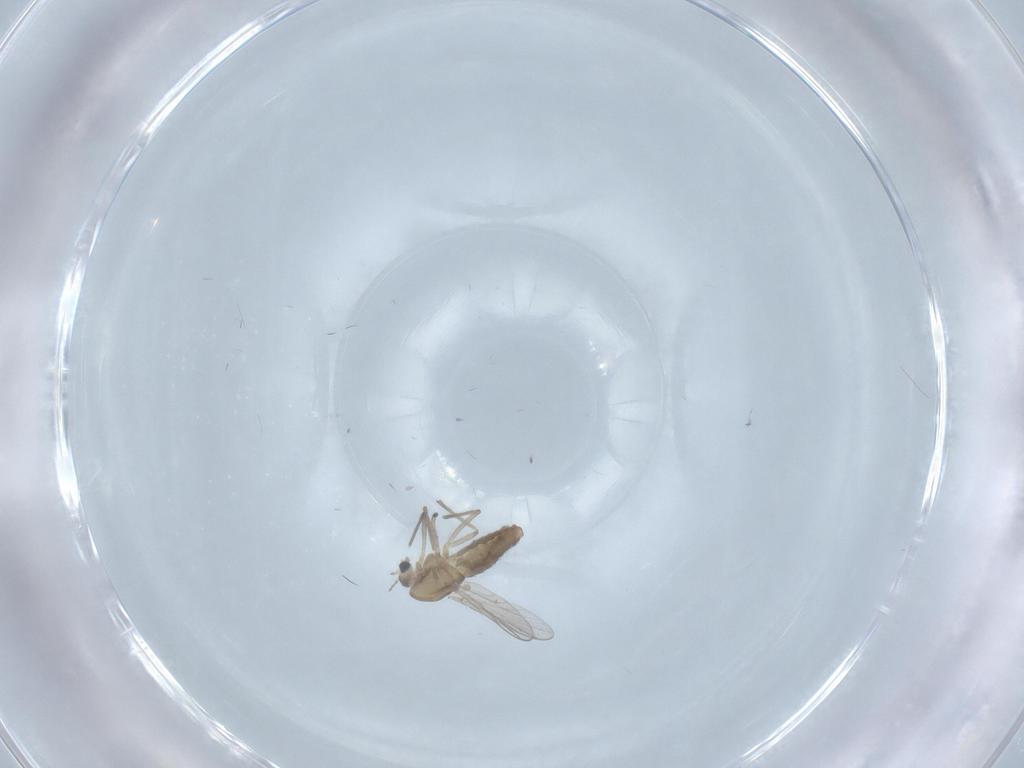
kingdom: Animalia
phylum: Arthropoda
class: Insecta
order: Diptera
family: Chironomidae
